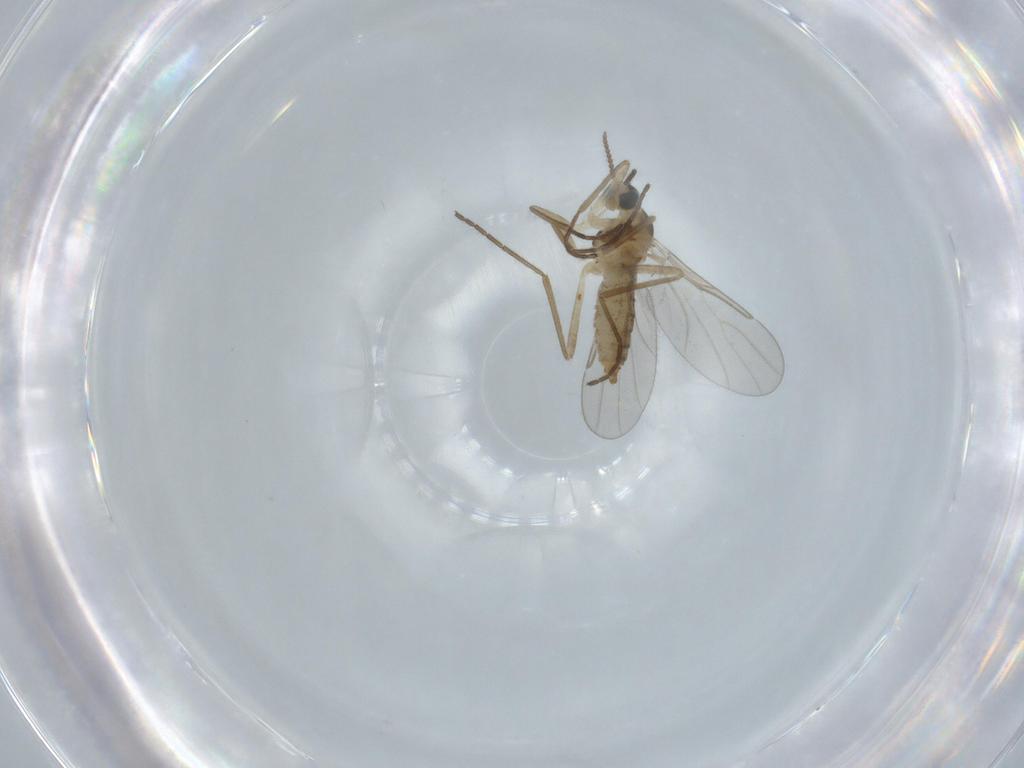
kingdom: Animalia
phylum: Arthropoda
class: Insecta
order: Diptera
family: Cecidomyiidae
